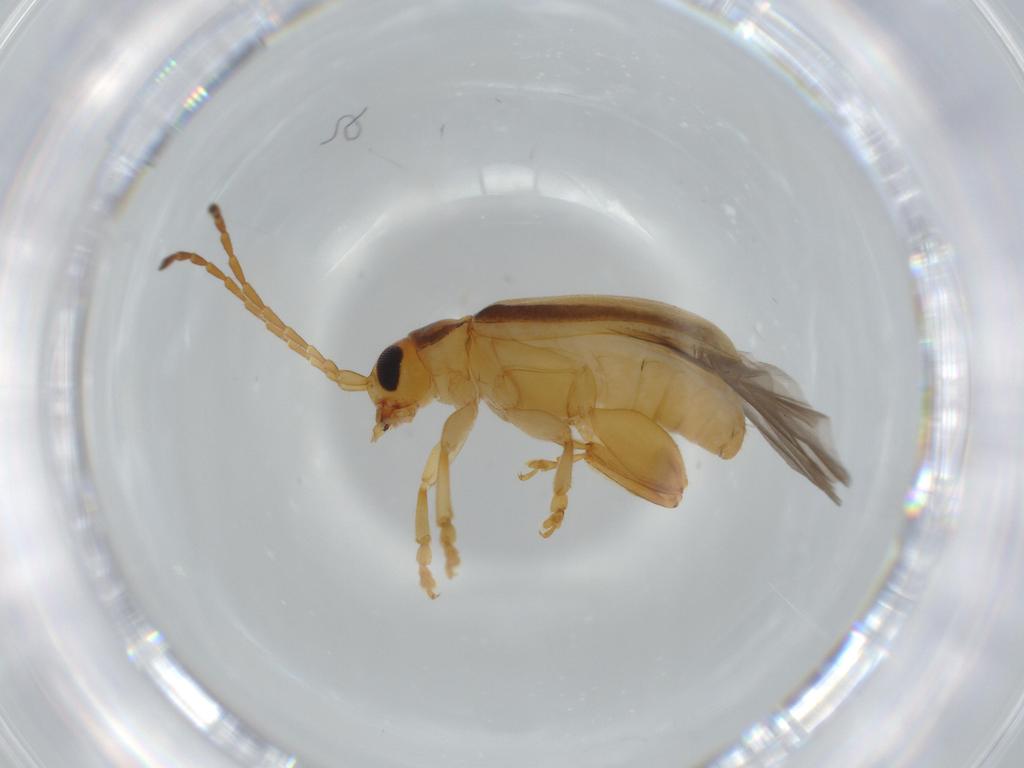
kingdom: Animalia
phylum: Arthropoda
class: Insecta
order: Coleoptera
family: Chrysomelidae
